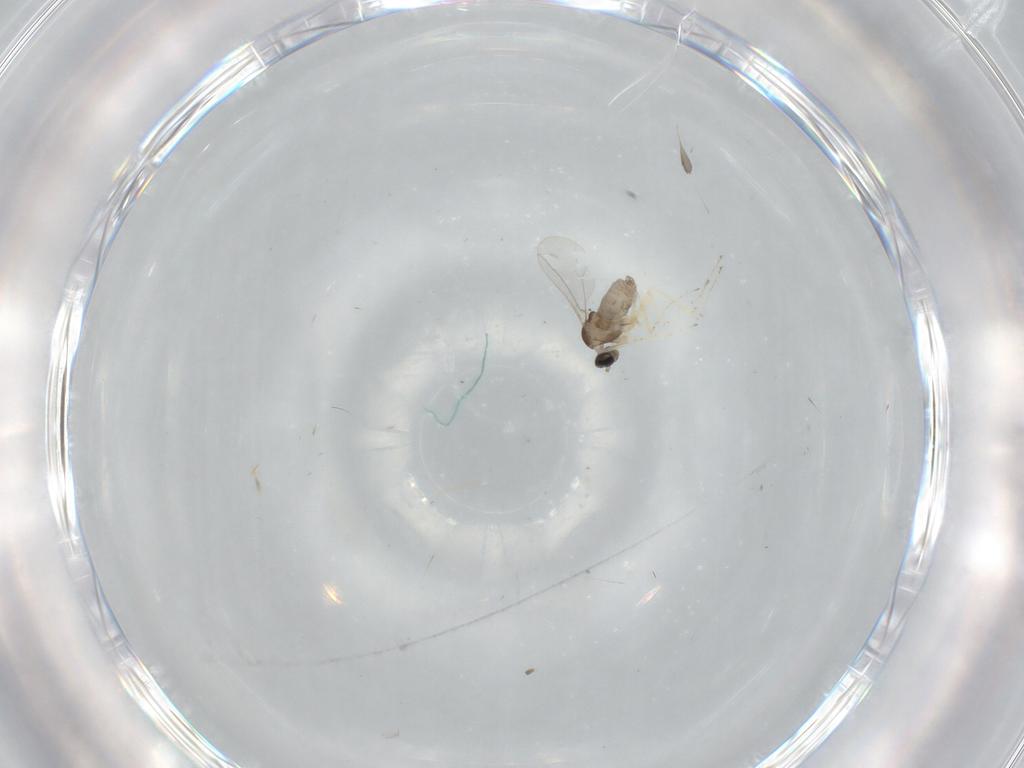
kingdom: Animalia
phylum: Arthropoda
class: Insecta
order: Diptera
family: Cecidomyiidae
